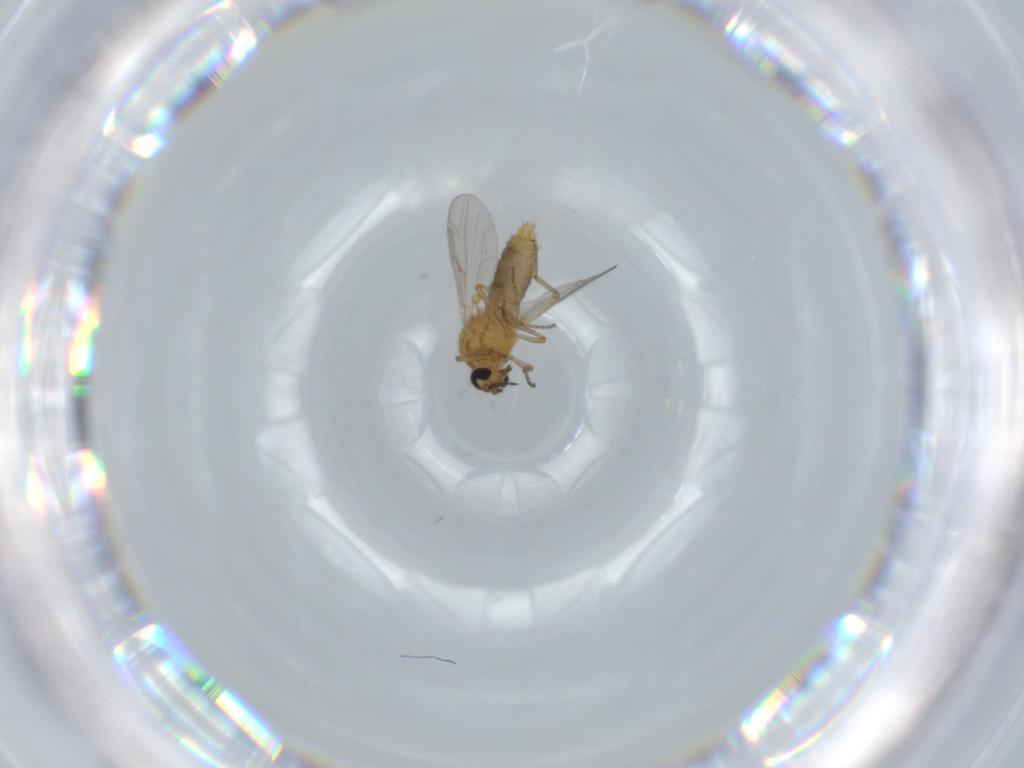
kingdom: Animalia
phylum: Arthropoda
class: Insecta
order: Diptera
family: Ceratopogonidae
